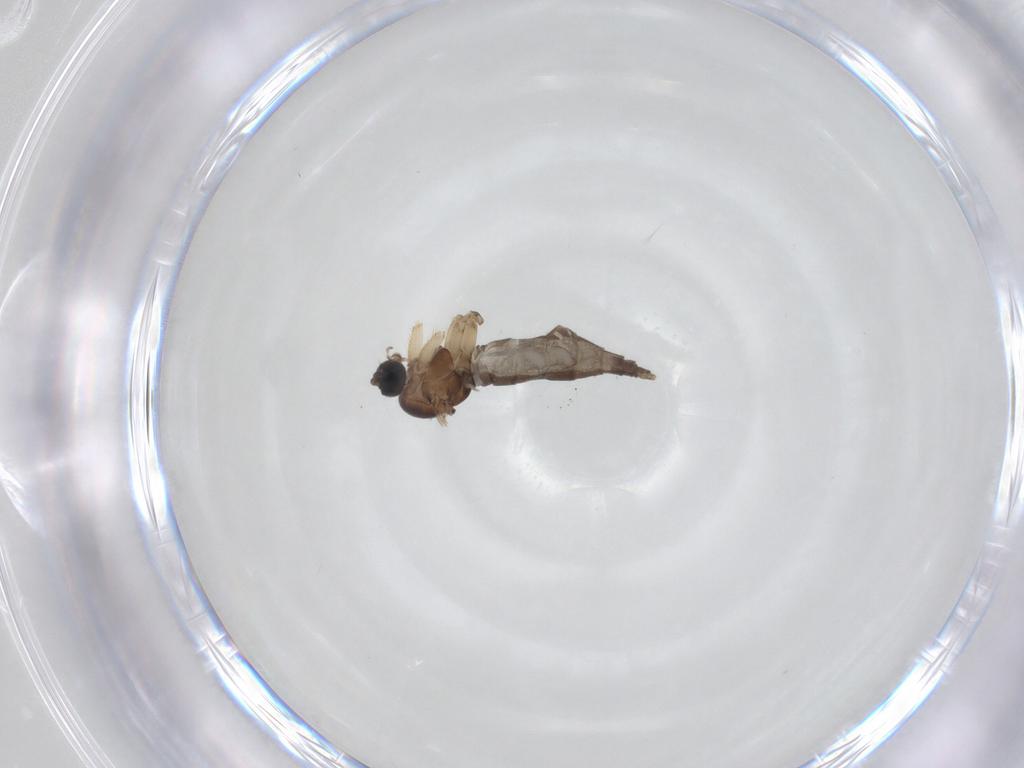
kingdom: Animalia
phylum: Arthropoda
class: Insecta
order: Diptera
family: Sciaridae
